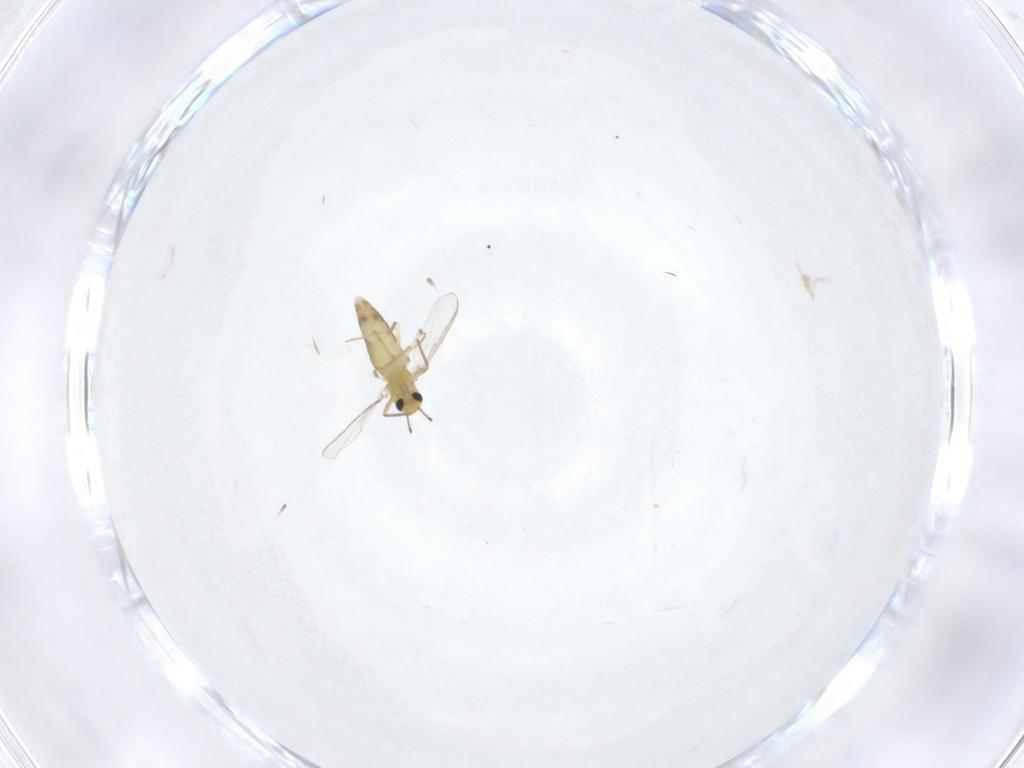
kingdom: Animalia
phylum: Arthropoda
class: Insecta
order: Diptera
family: Chironomidae
